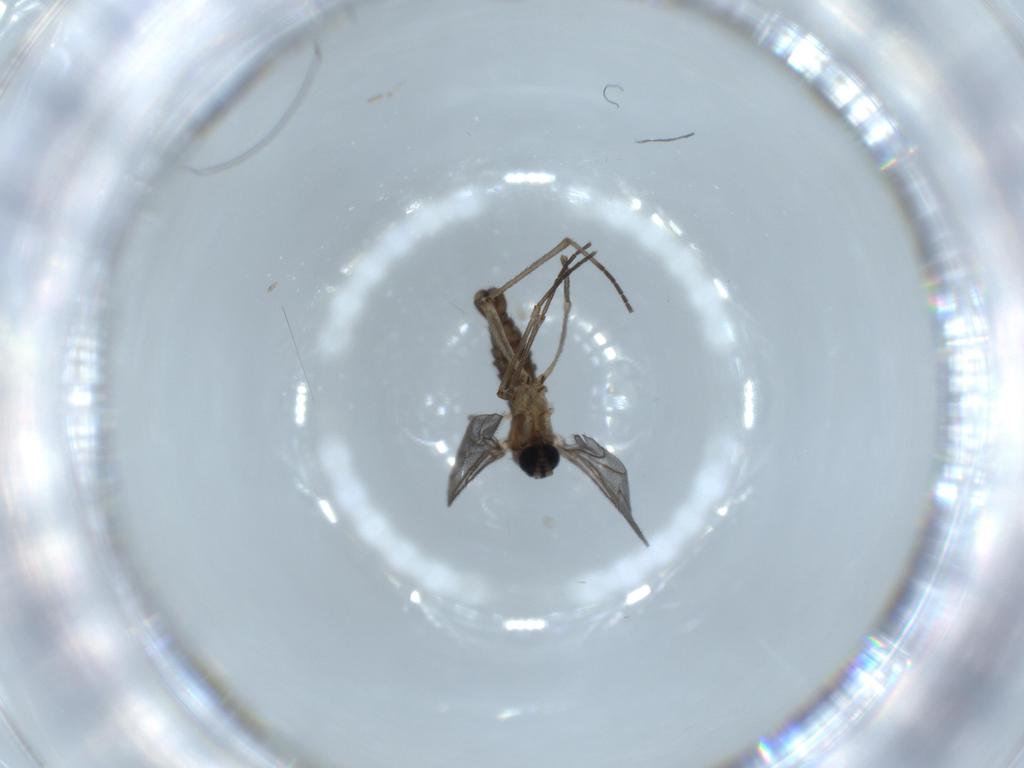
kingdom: Animalia
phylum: Arthropoda
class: Insecta
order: Diptera
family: Sciaridae
